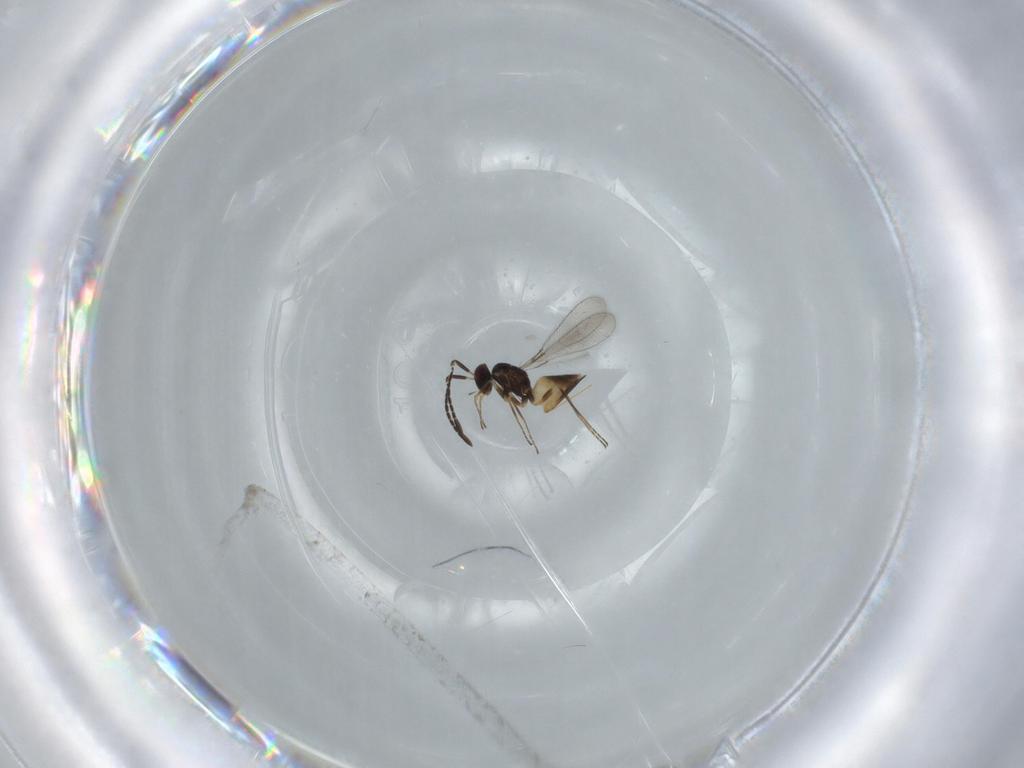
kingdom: Animalia
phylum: Arthropoda
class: Insecta
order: Hymenoptera
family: Mymaridae
